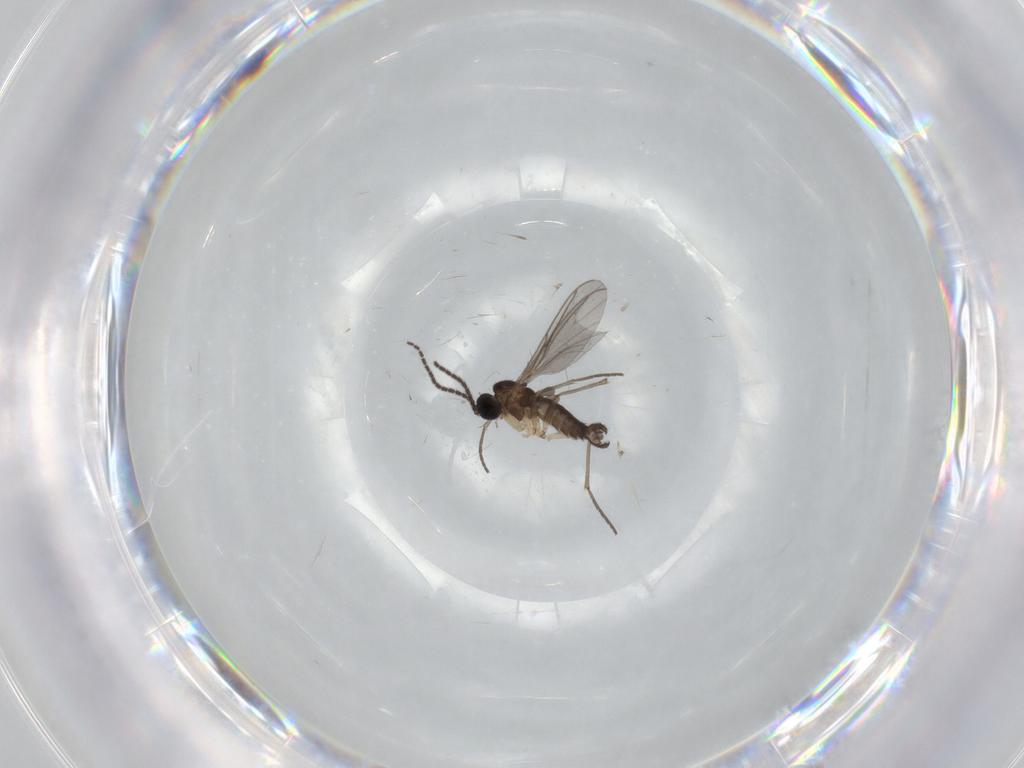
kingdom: Animalia
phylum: Arthropoda
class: Insecta
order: Diptera
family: Sciaridae
